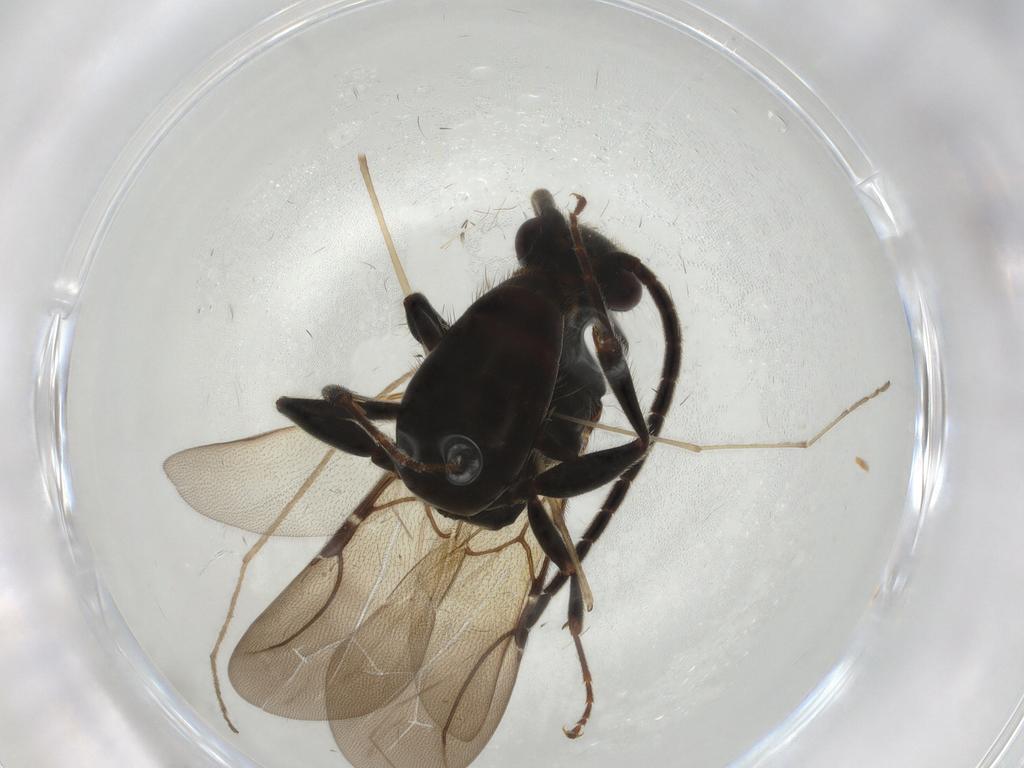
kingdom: Animalia
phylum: Arthropoda
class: Insecta
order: Hymenoptera
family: Bethylidae
